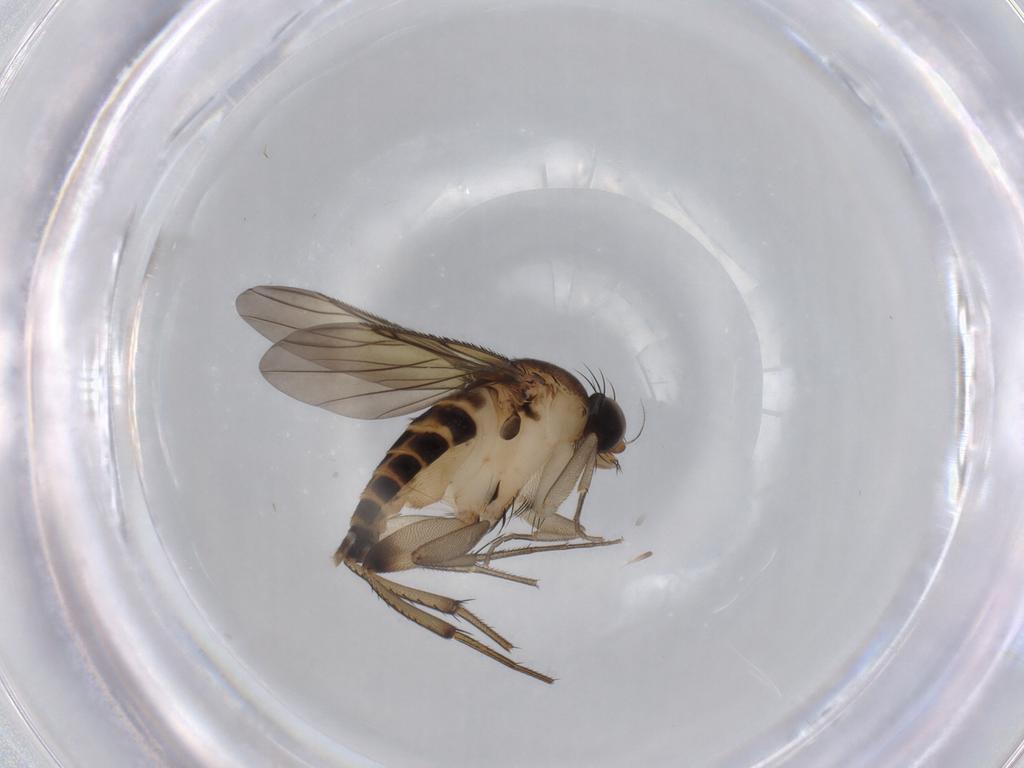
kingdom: Animalia
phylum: Arthropoda
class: Insecta
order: Diptera
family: Phoridae
